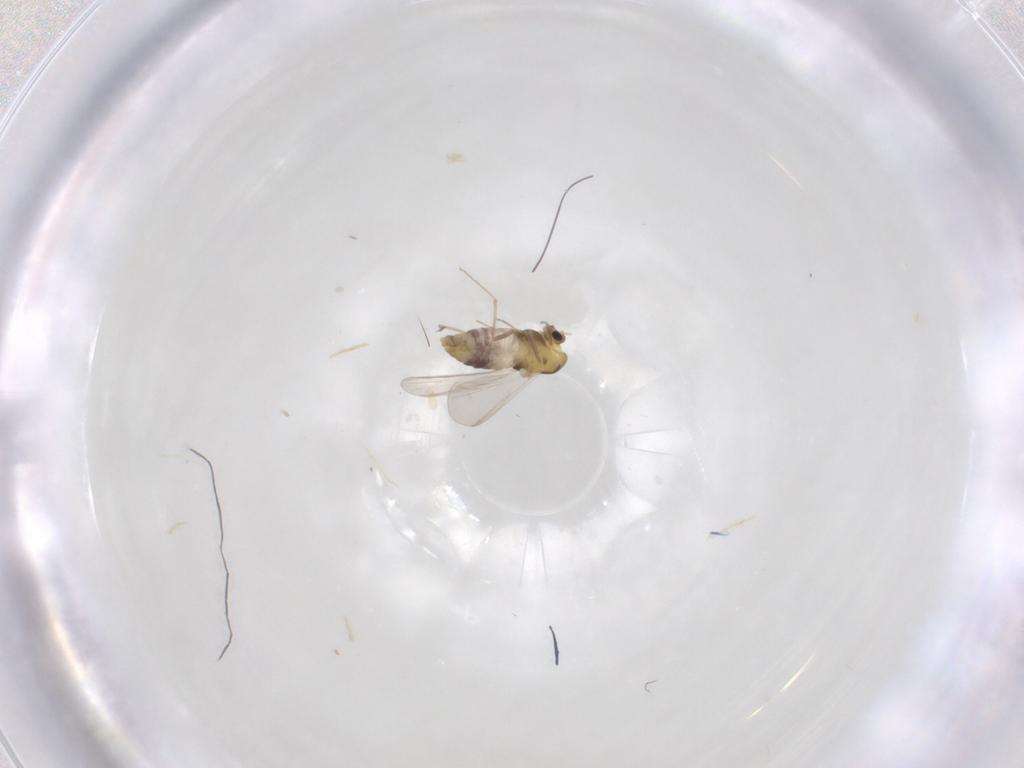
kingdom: Animalia
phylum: Arthropoda
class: Insecta
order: Diptera
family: Chironomidae
